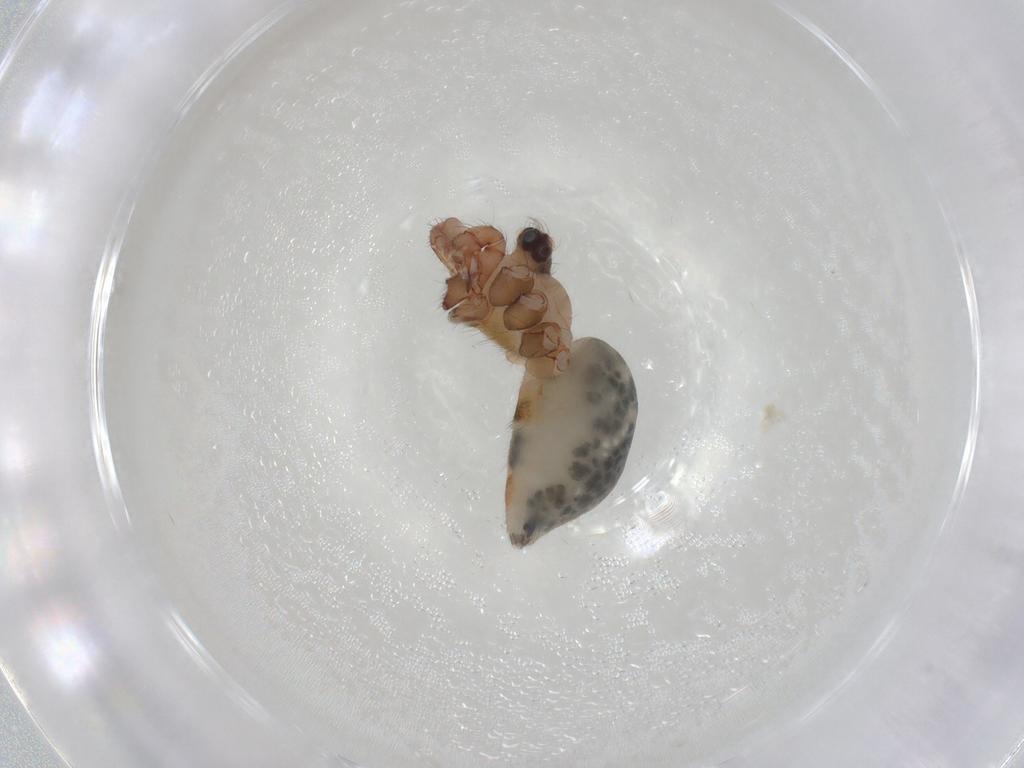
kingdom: Animalia
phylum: Arthropoda
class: Arachnida
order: Araneae
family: Pholcidae
